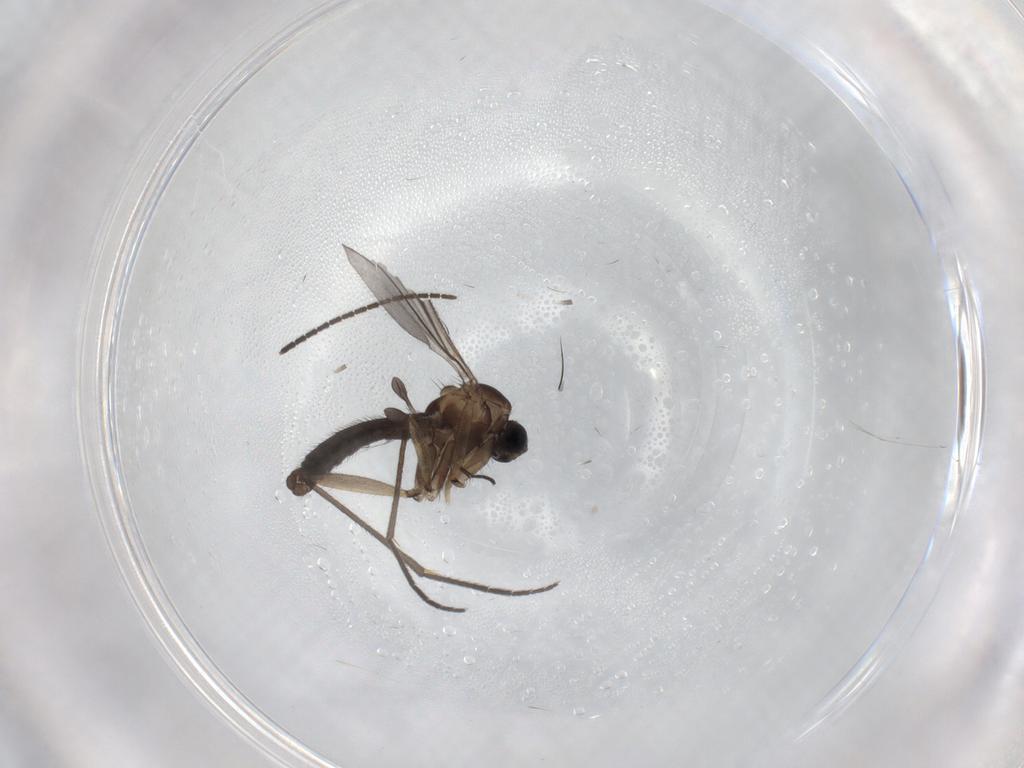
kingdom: Animalia
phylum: Arthropoda
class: Insecta
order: Diptera
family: Sciaridae
